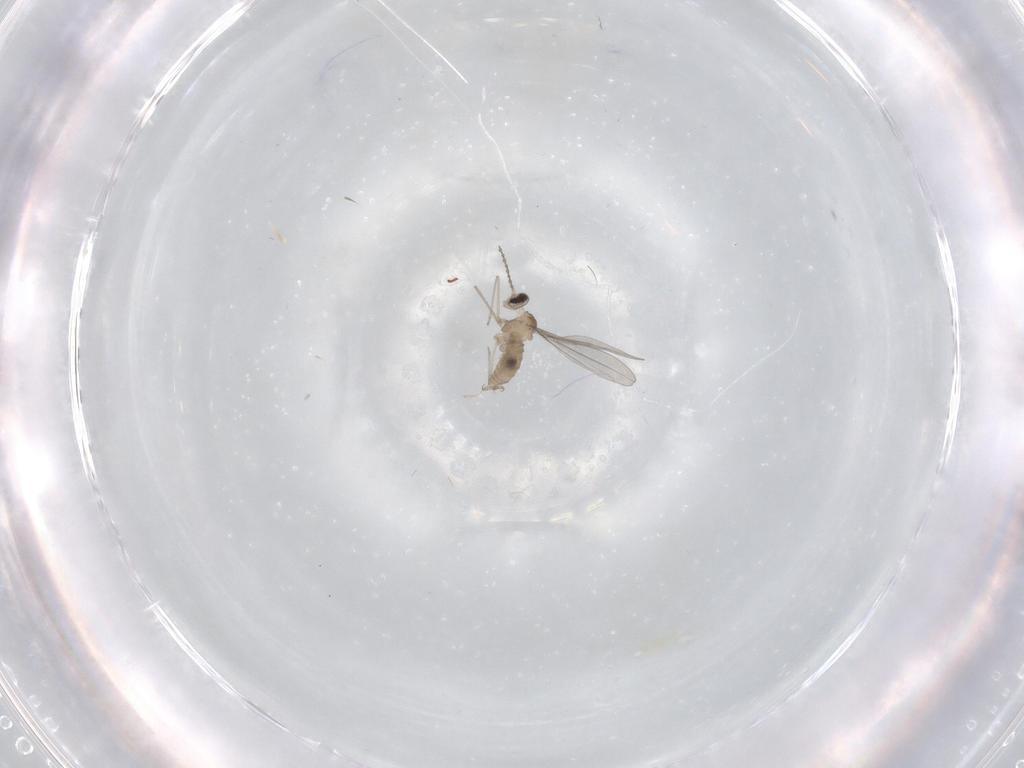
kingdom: Animalia
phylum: Arthropoda
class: Insecta
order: Diptera
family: Cecidomyiidae
